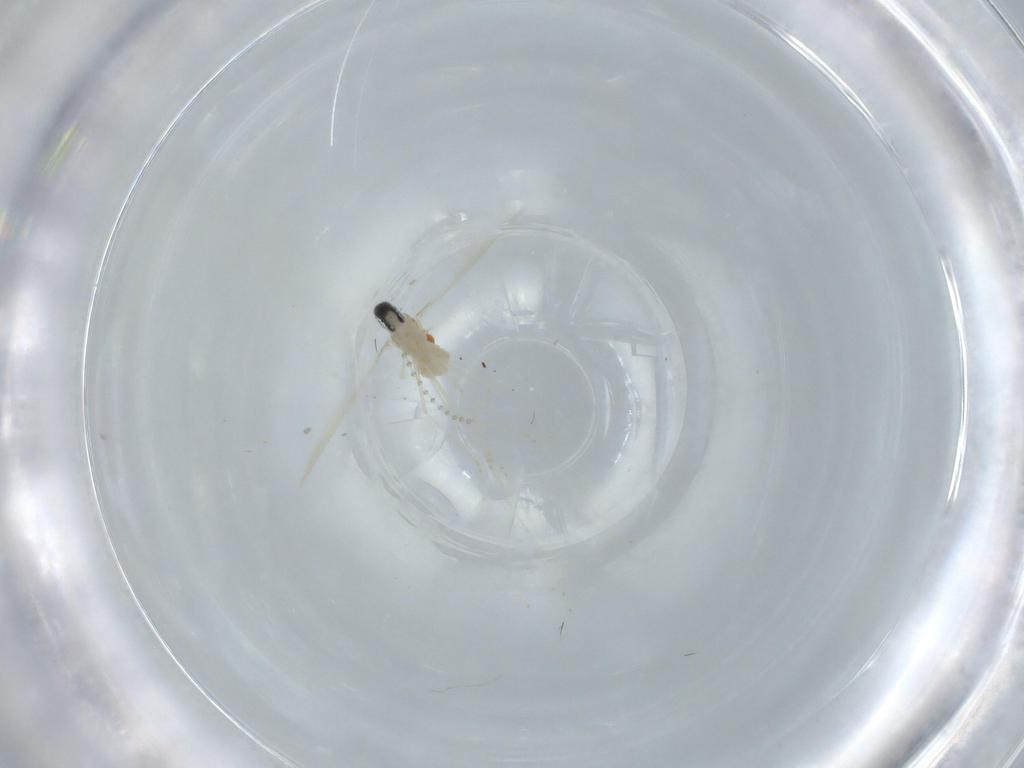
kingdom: Animalia
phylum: Arthropoda
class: Insecta
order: Diptera
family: Cecidomyiidae
